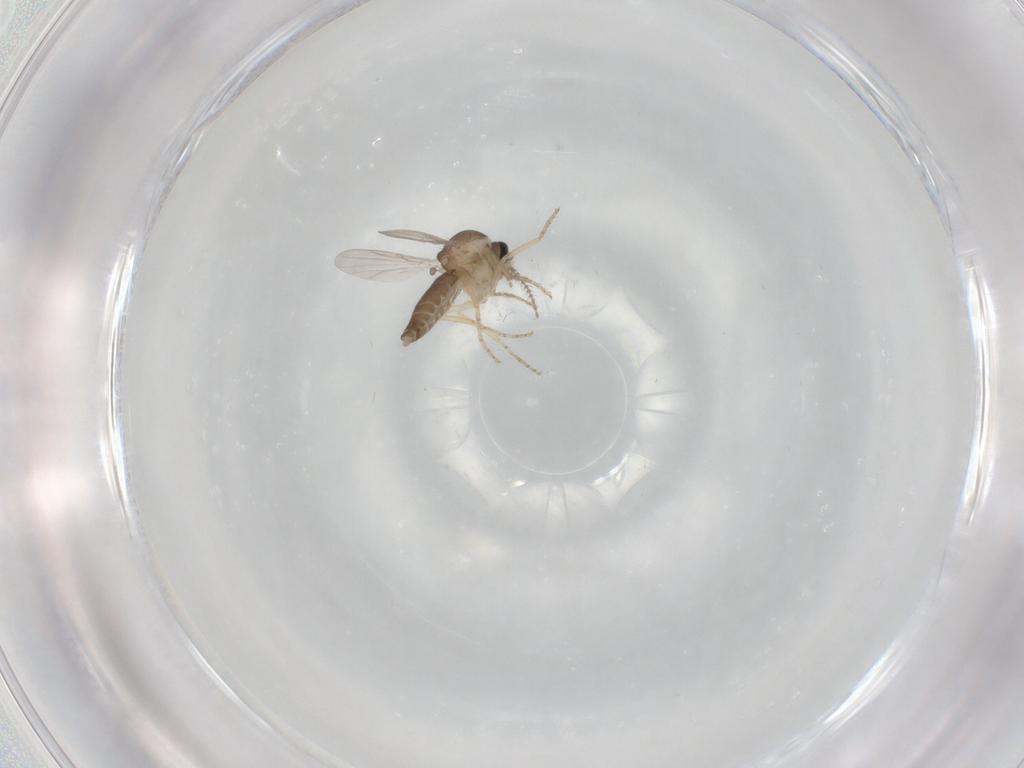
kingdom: Animalia
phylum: Arthropoda
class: Insecta
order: Diptera
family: Ceratopogonidae
